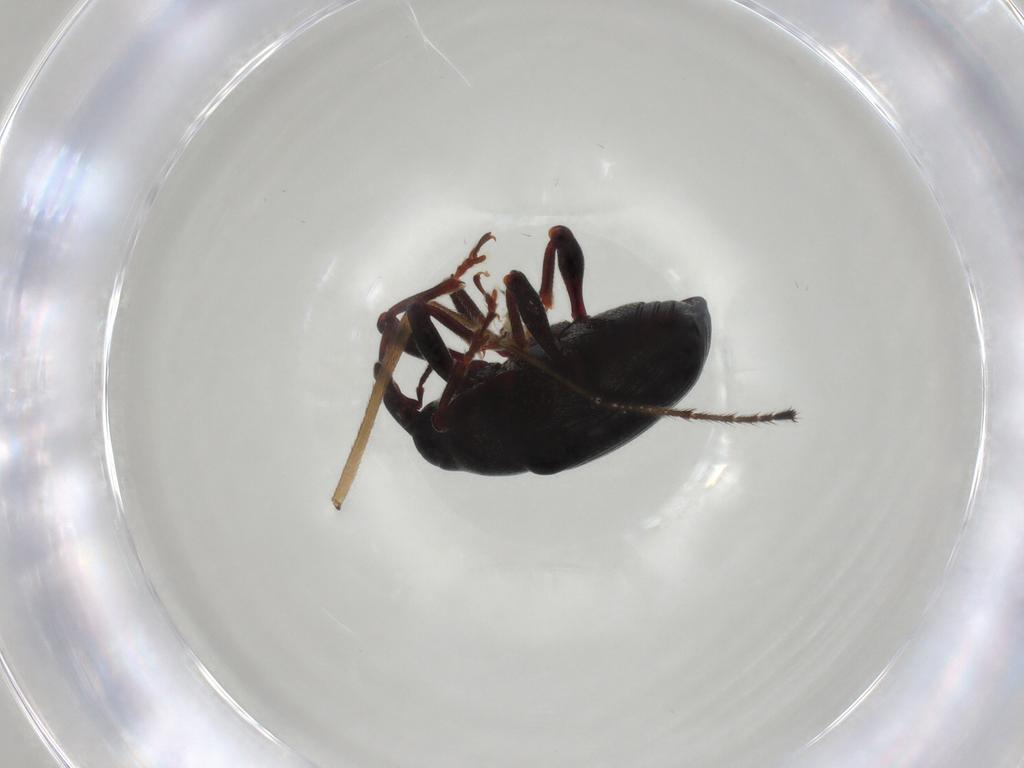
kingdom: Animalia
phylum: Arthropoda
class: Insecta
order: Coleoptera
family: Curculionidae
